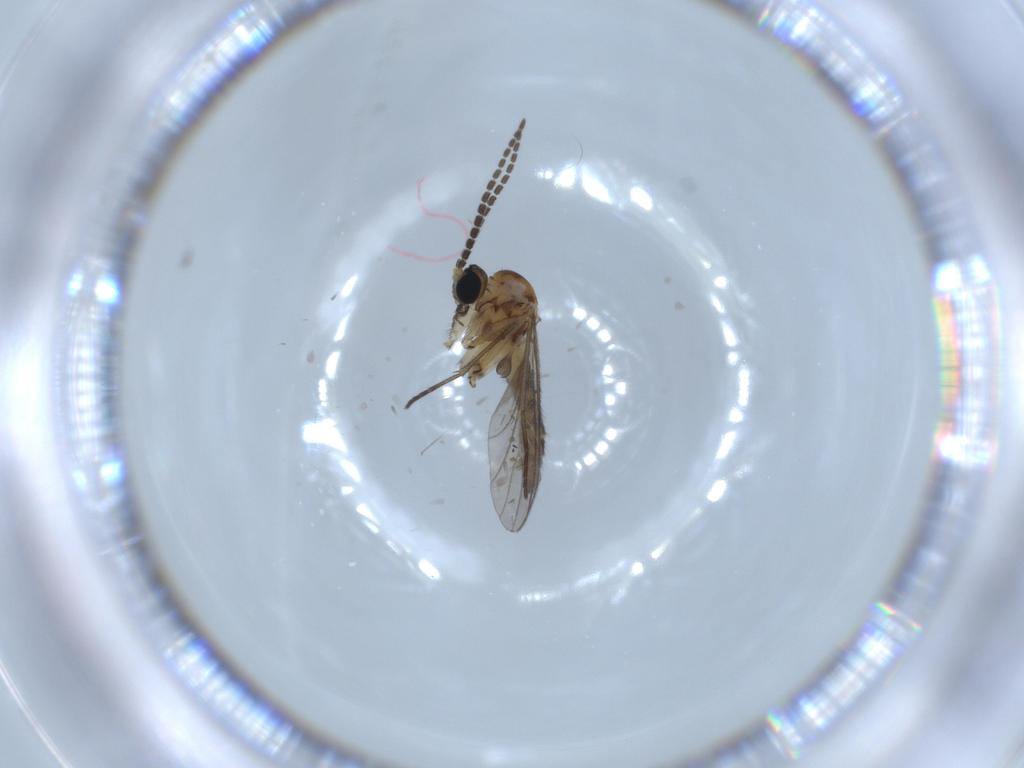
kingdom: Animalia
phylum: Arthropoda
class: Insecta
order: Diptera
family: Sciaridae
